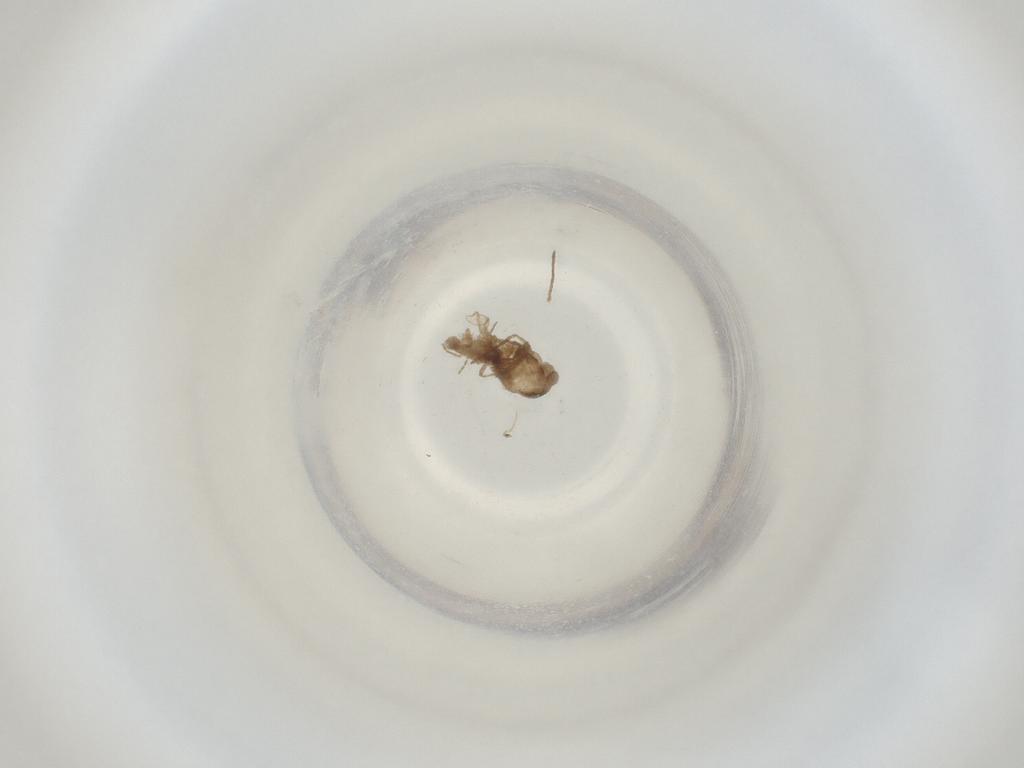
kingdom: Animalia
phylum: Arthropoda
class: Insecta
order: Diptera
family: Cecidomyiidae
